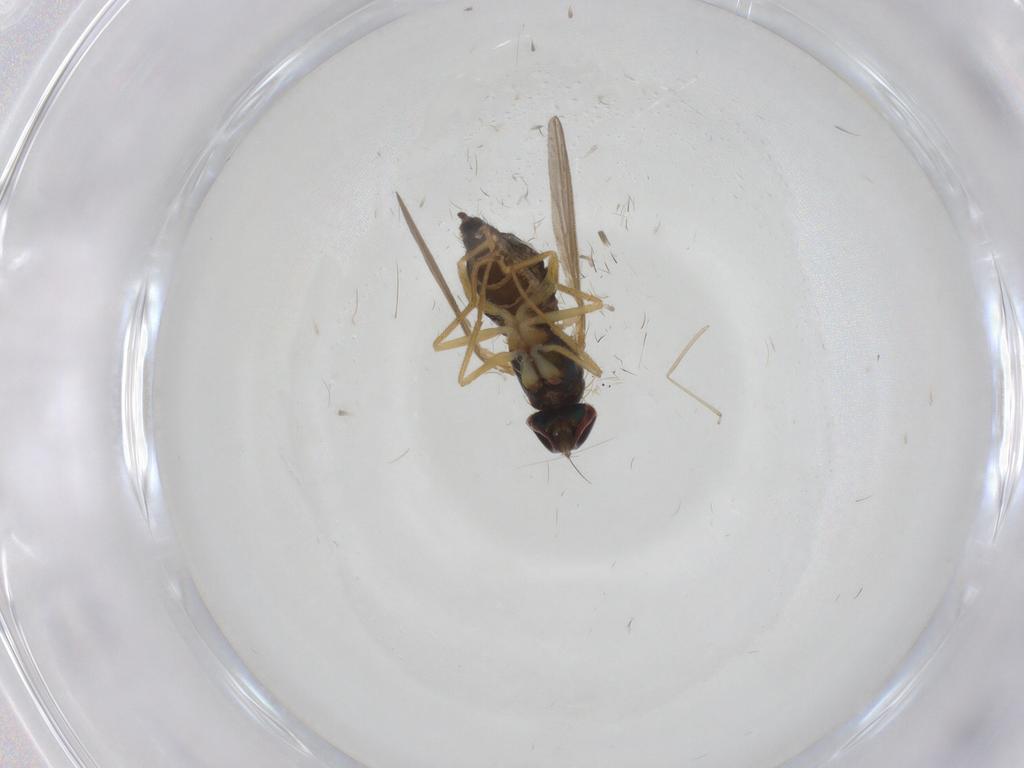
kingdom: Animalia
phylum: Arthropoda
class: Insecta
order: Diptera
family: Dolichopodidae
